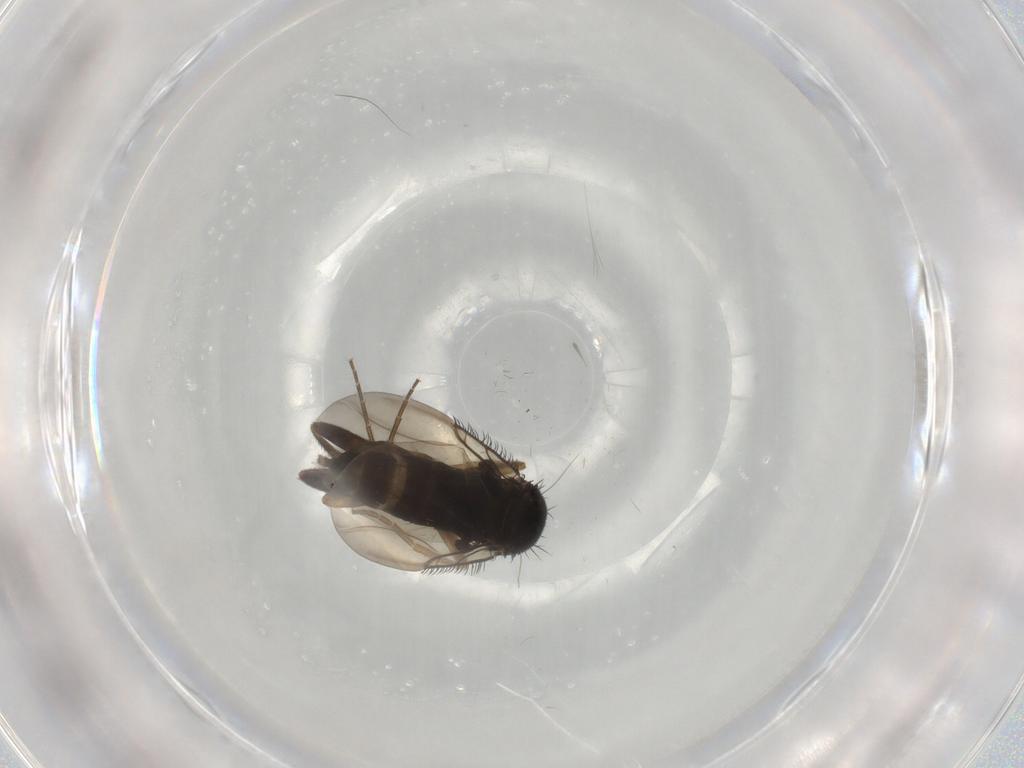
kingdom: Animalia
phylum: Arthropoda
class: Insecta
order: Diptera
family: Phoridae
